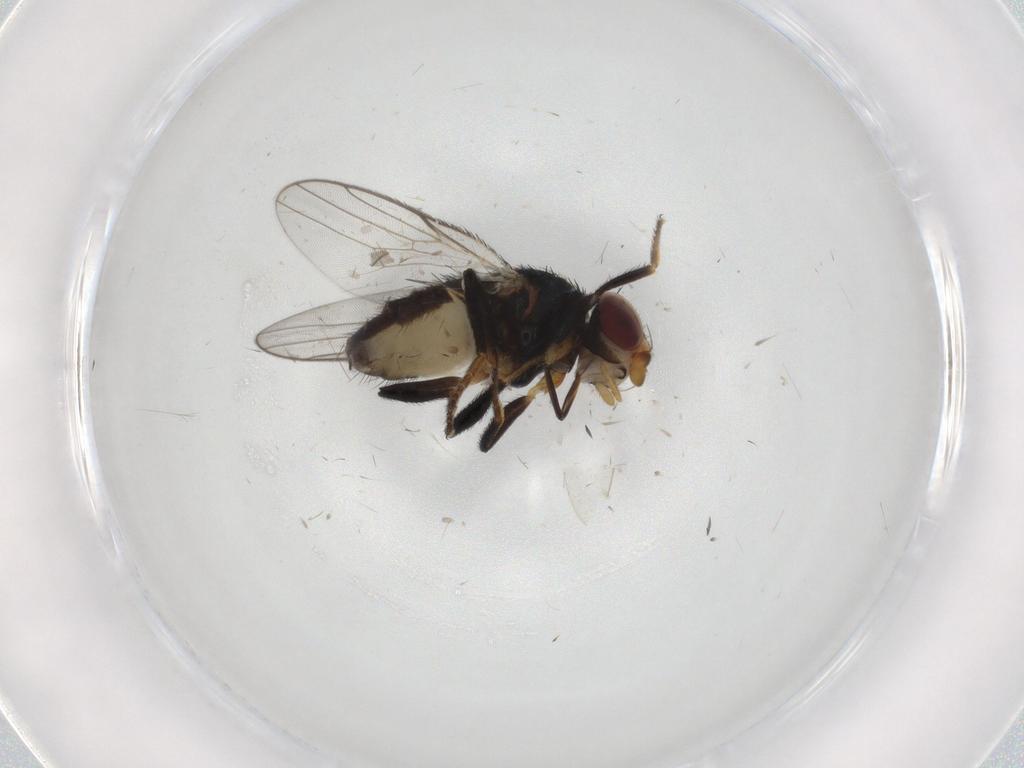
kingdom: Animalia
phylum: Arthropoda
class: Insecta
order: Diptera
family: Chloropidae
